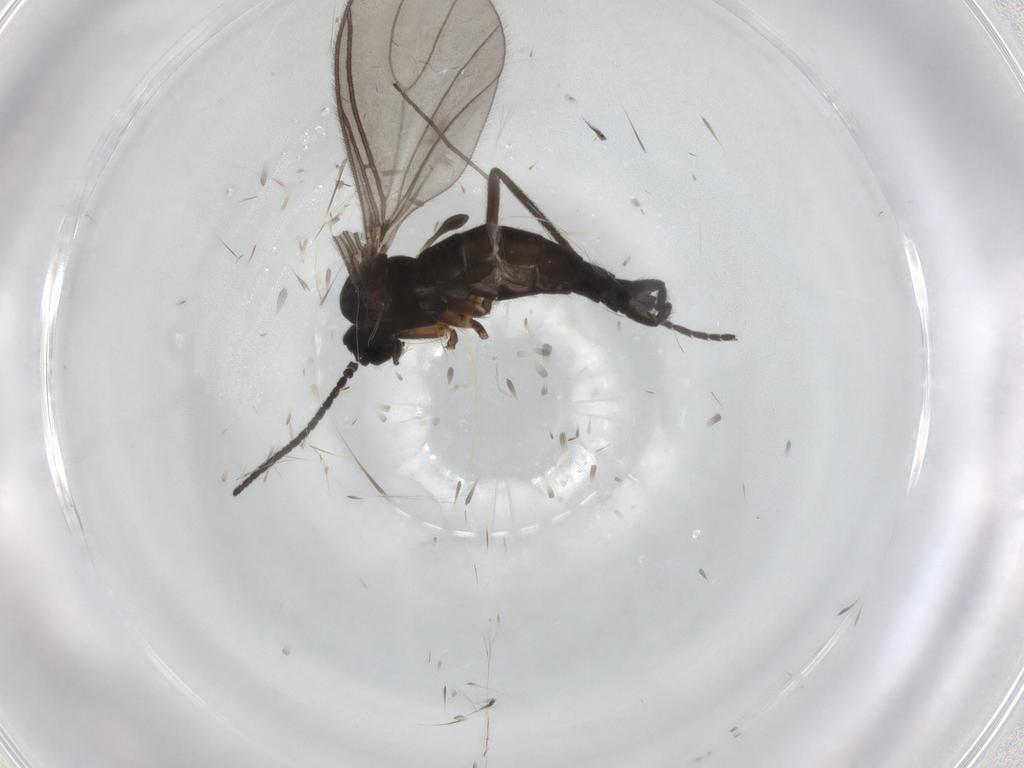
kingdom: Animalia
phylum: Arthropoda
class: Insecta
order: Diptera
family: Sciaridae
